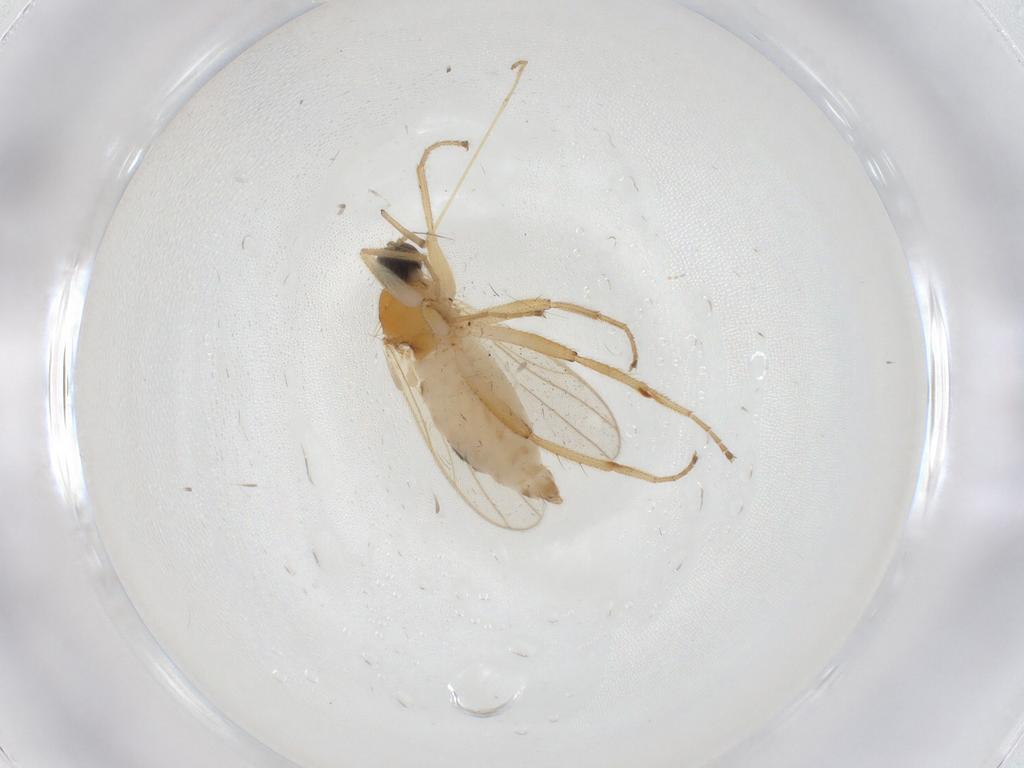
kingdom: Animalia
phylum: Arthropoda
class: Insecta
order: Diptera
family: Hybotidae
